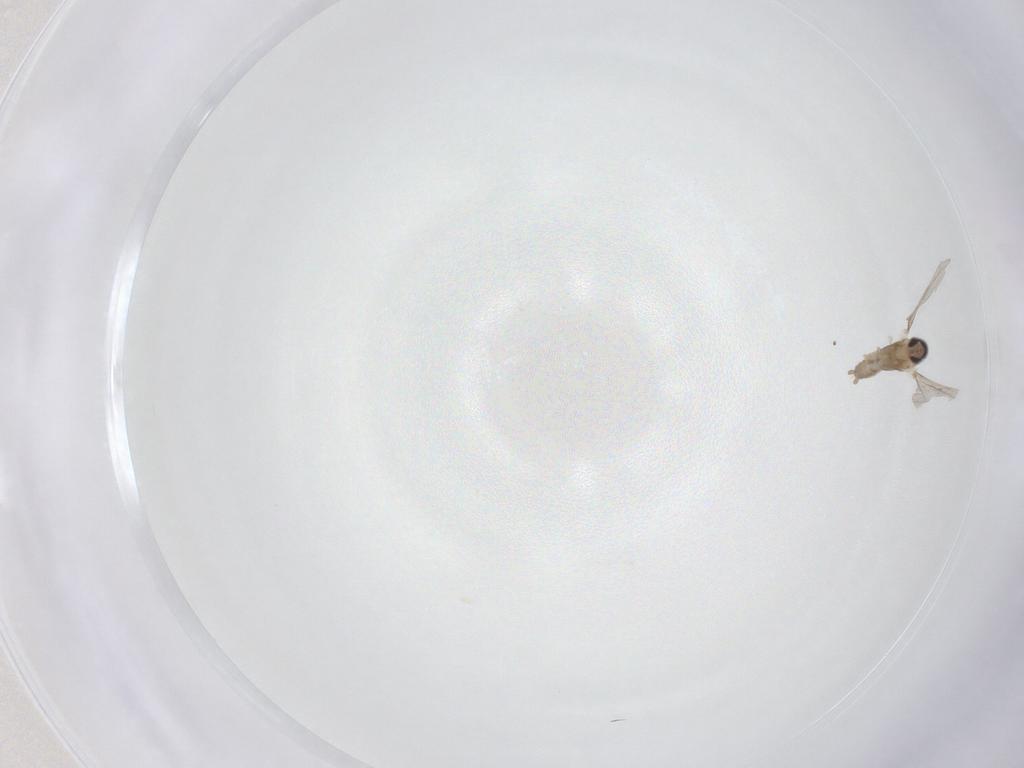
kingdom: Animalia
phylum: Arthropoda
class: Insecta
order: Diptera
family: Cecidomyiidae
